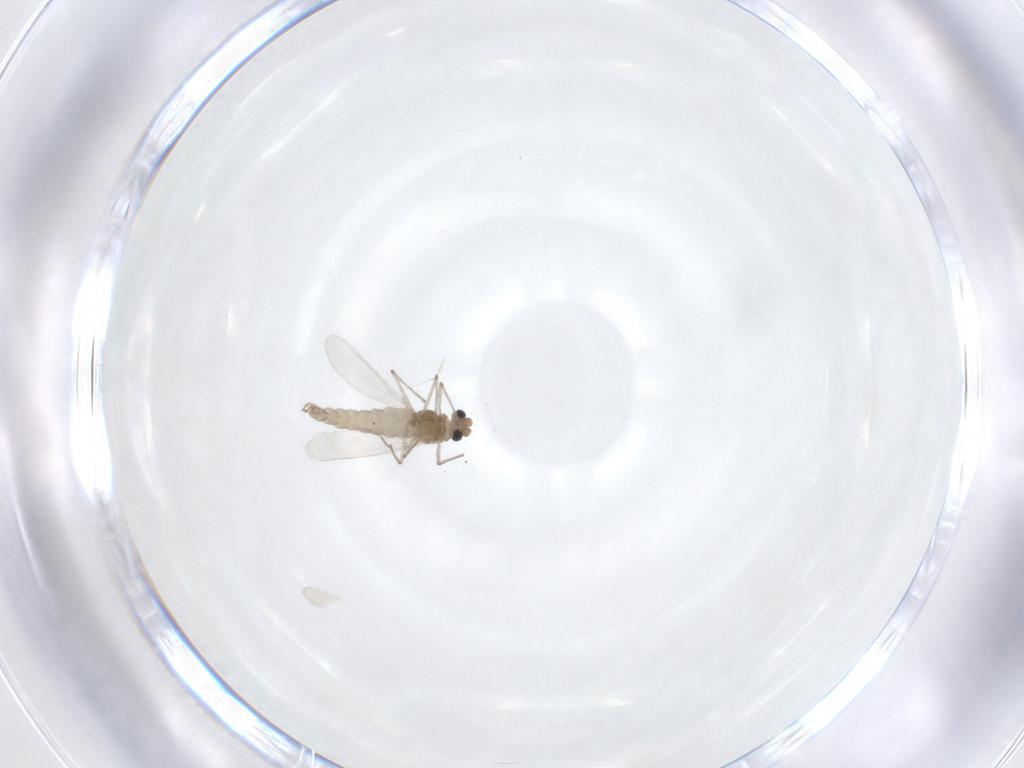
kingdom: Animalia
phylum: Arthropoda
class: Insecta
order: Diptera
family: Chironomidae
